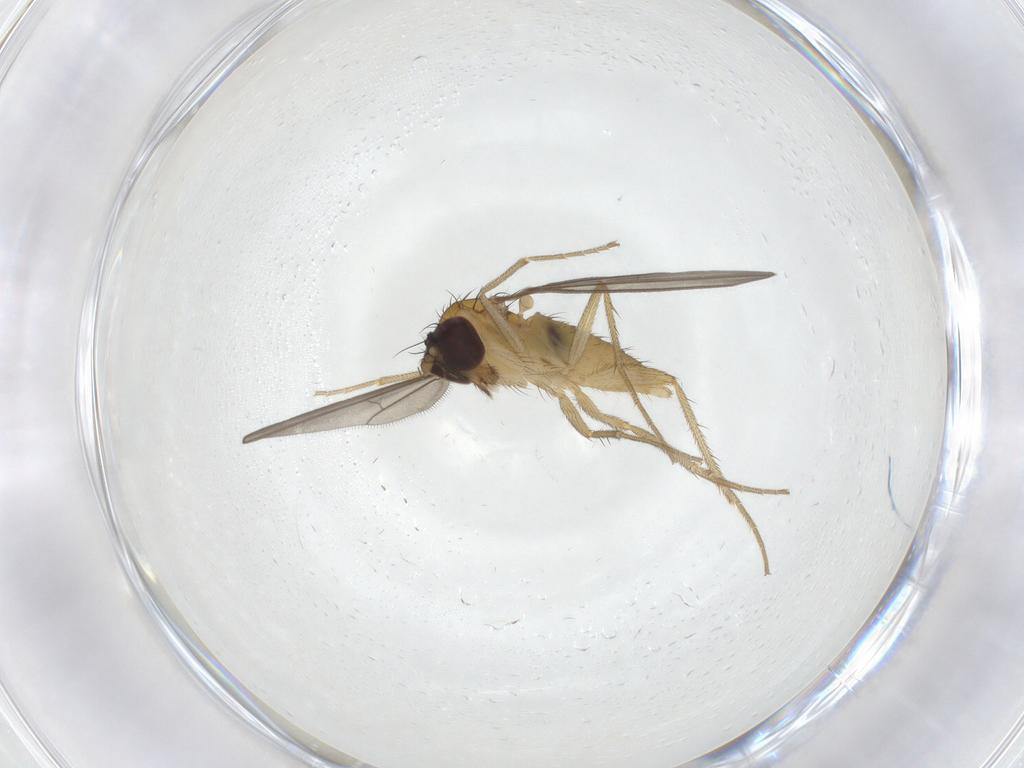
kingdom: Animalia
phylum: Arthropoda
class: Insecta
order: Diptera
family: Dolichopodidae
